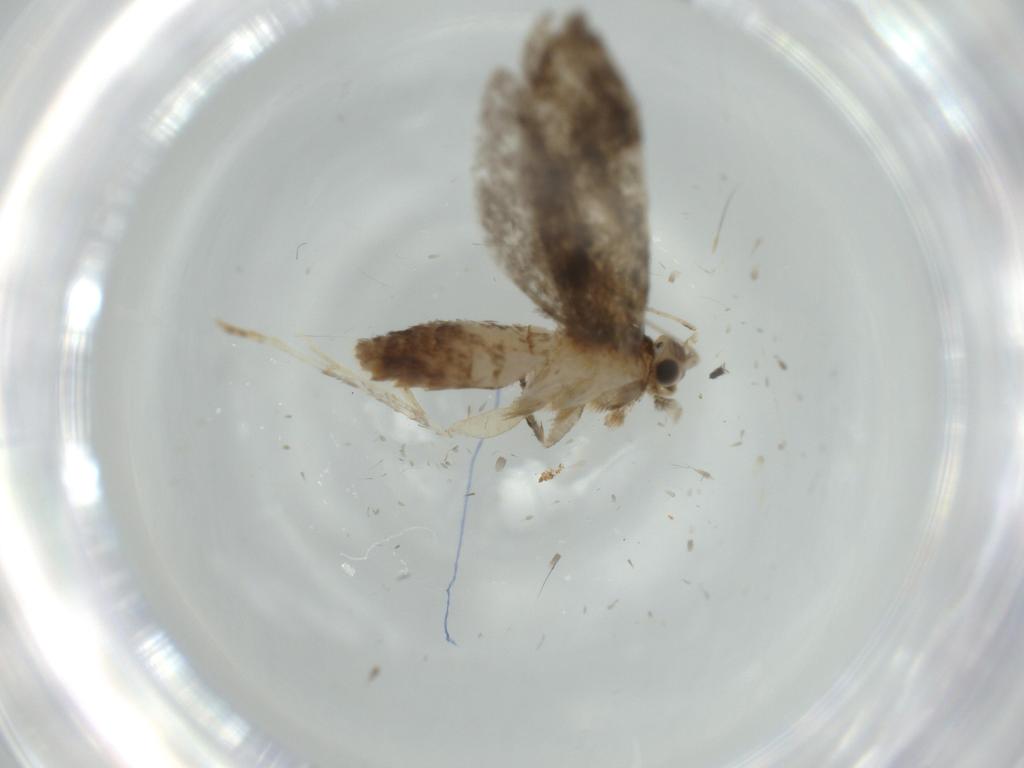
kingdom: Animalia
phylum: Arthropoda
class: Insecta
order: Lepidoptera
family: Tineidae
